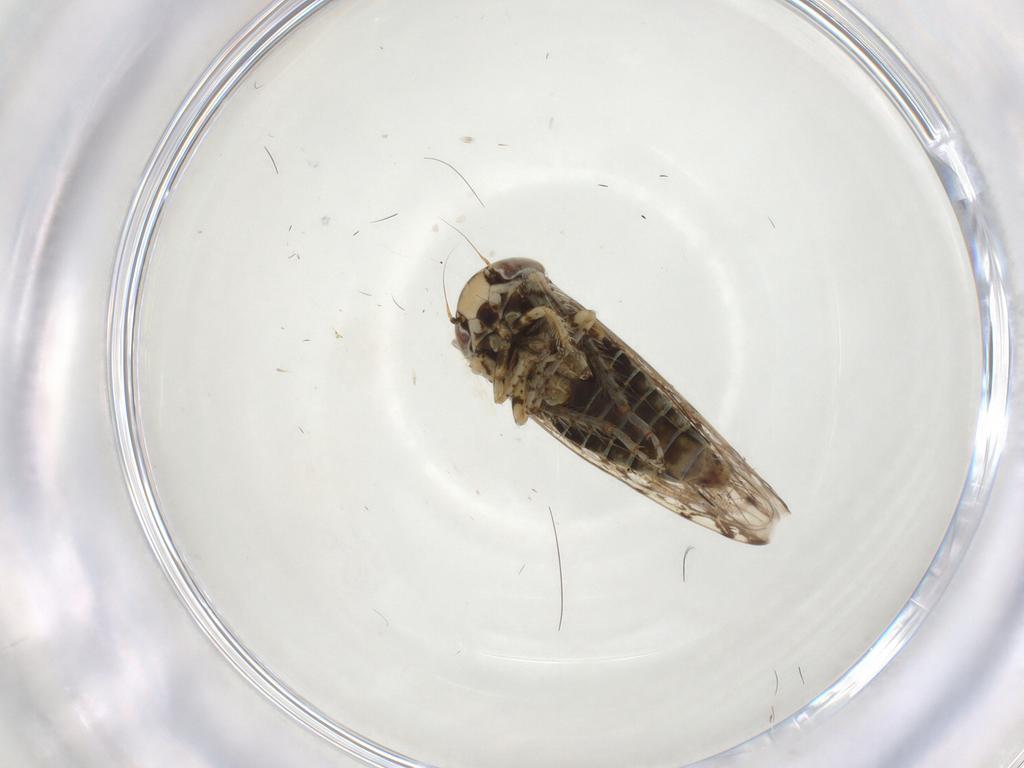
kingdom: Animalia
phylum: Arthropoda
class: Insecta
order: Hemiptera
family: Cicadellidae
